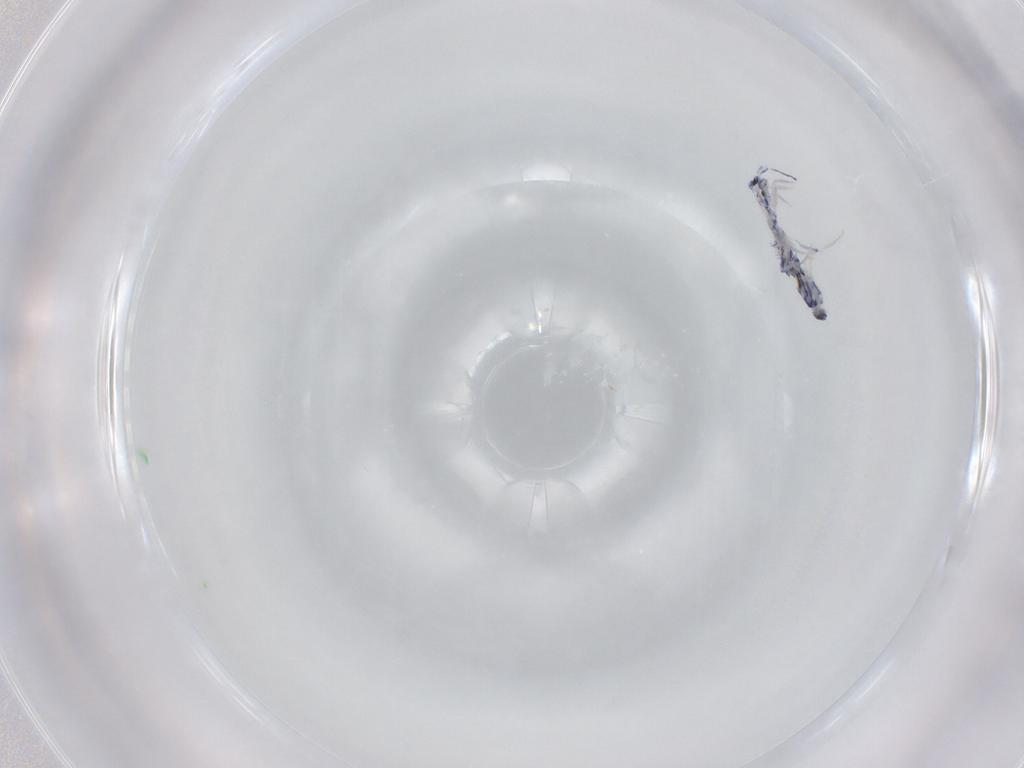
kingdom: Animalia
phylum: Arthropoda
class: Collembola
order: Entomobryomorpha
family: Entomobryidae
